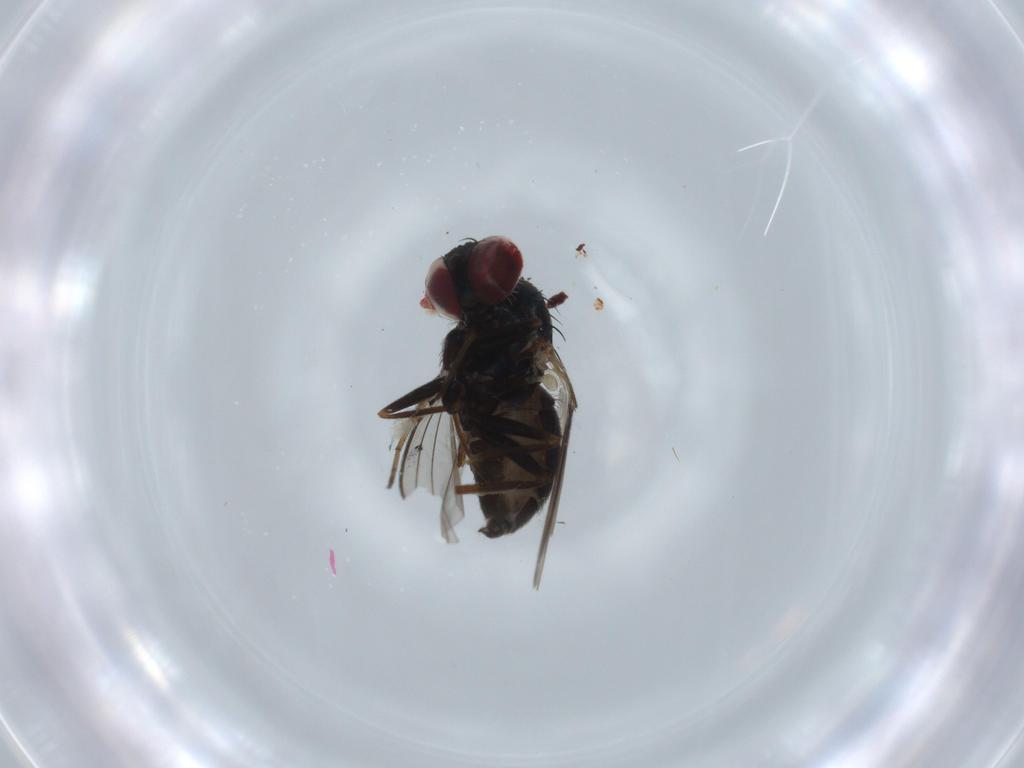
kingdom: Animalia
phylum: Arthropoda
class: Insecta
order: Diptera
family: Dolichopodidae
